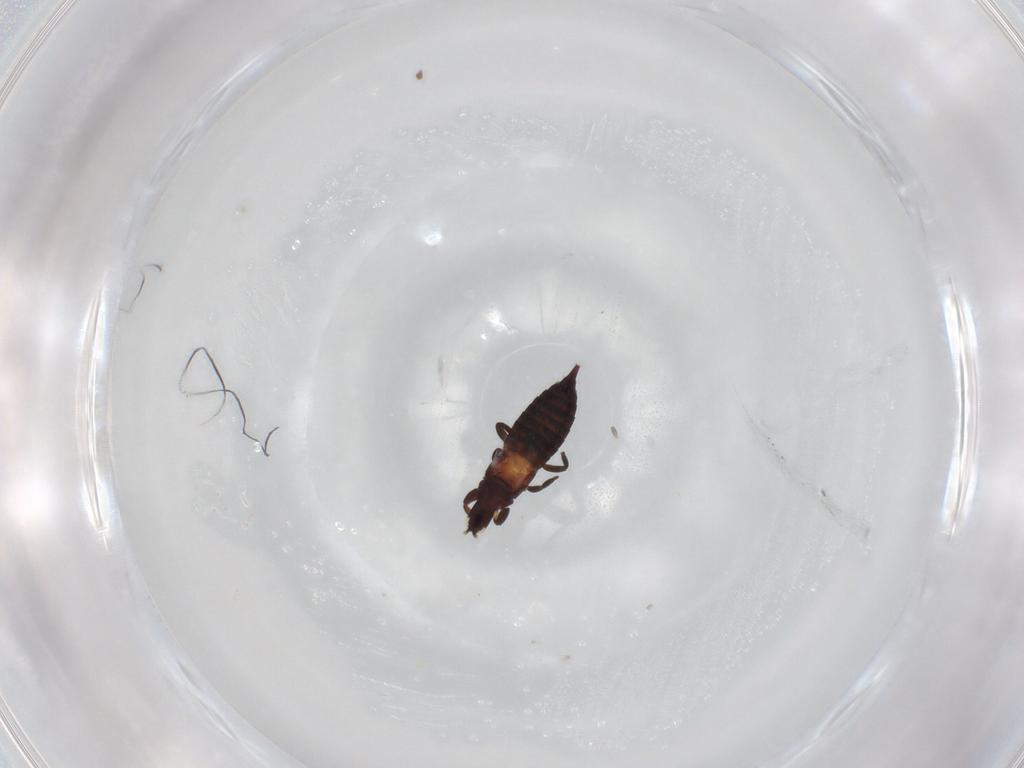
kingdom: Animalia
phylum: Arthropoda
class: Insecta
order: Thysanoptera
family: Phlaeothripidae
